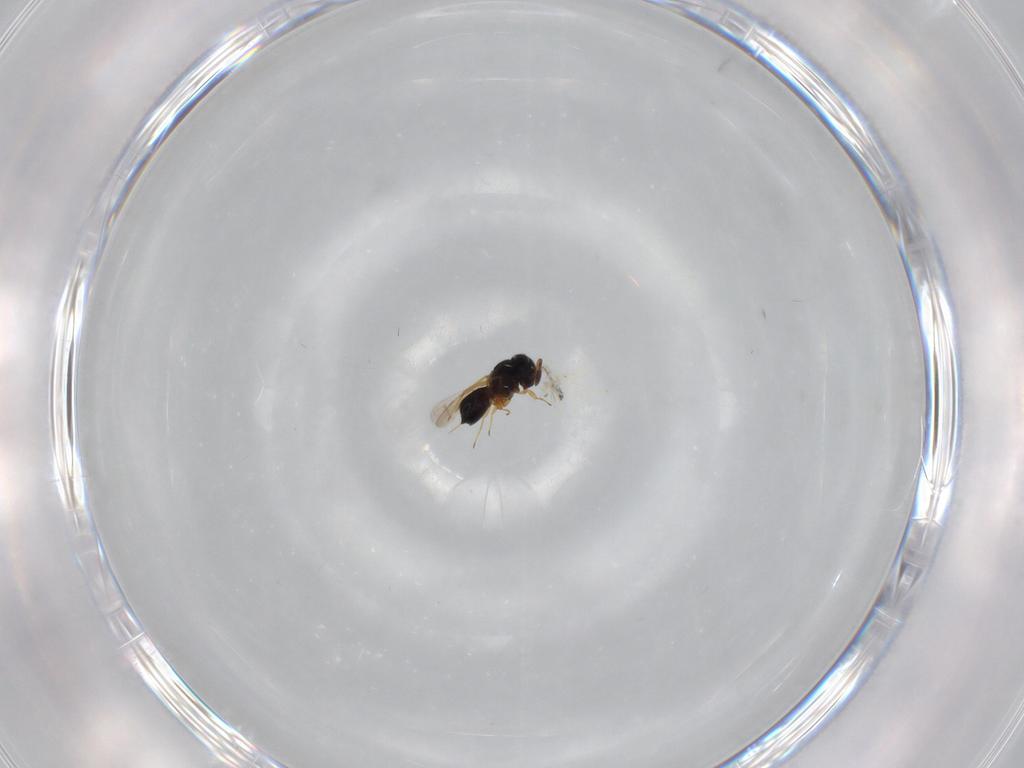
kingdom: Animalia
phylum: Arthropoda
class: Insecta
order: Hymenoptera
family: Scelionidae
